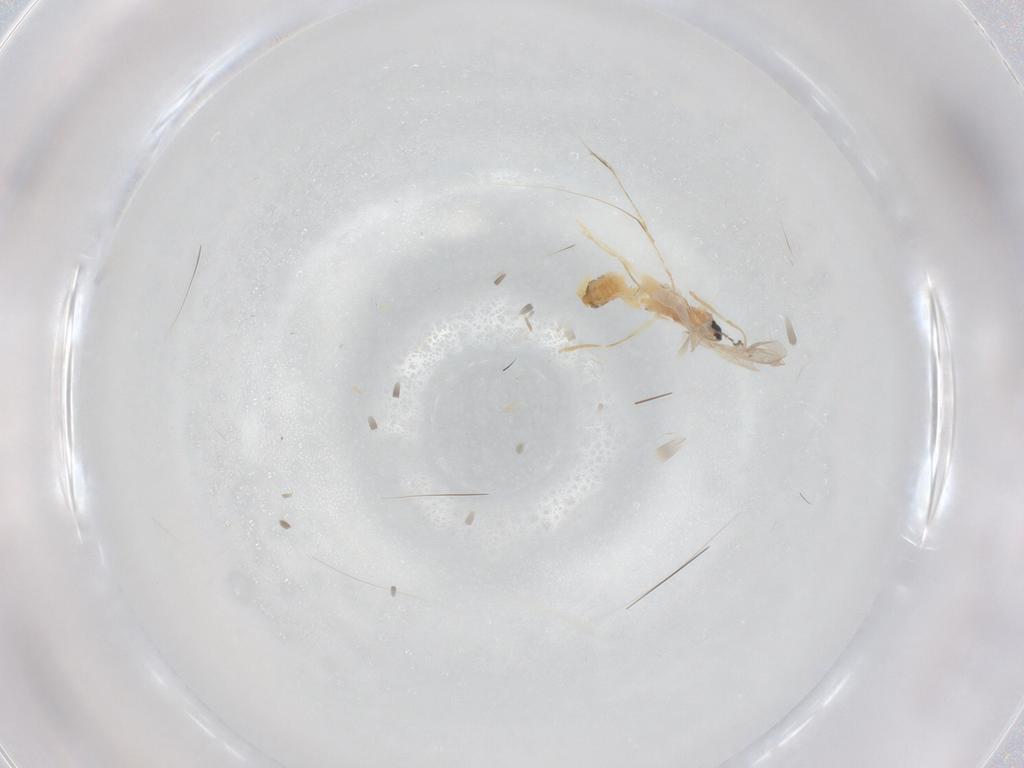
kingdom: Animalia
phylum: Arthropoda
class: Insecta
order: Diptera
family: Cecidomyiidae
